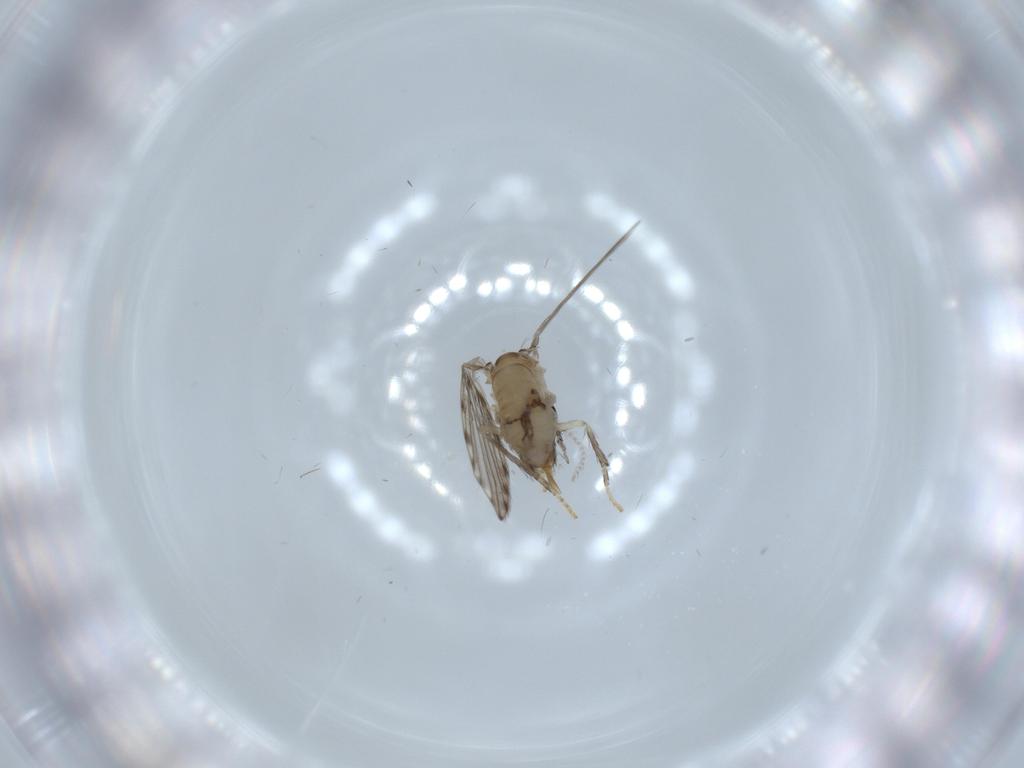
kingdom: Animalia
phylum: Arthropoda
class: Insecta
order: Diptera
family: Psychodidae
